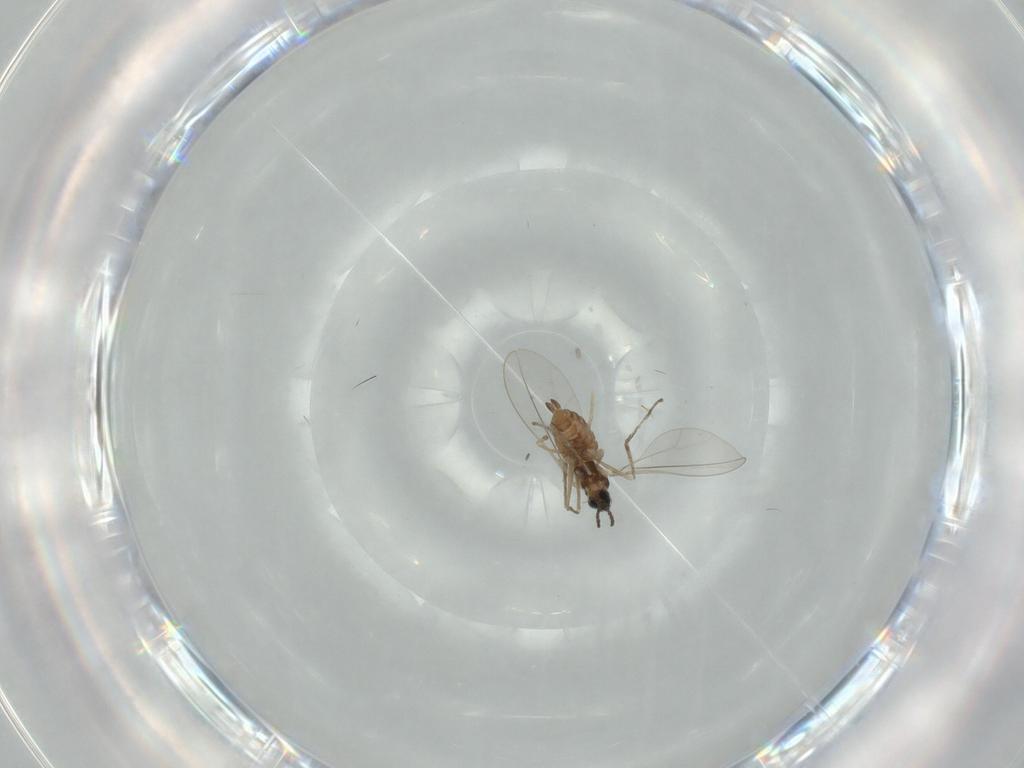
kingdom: Animalia
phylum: Arthropoda
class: Insecta
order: Diptera
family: Cecidomyiidae
